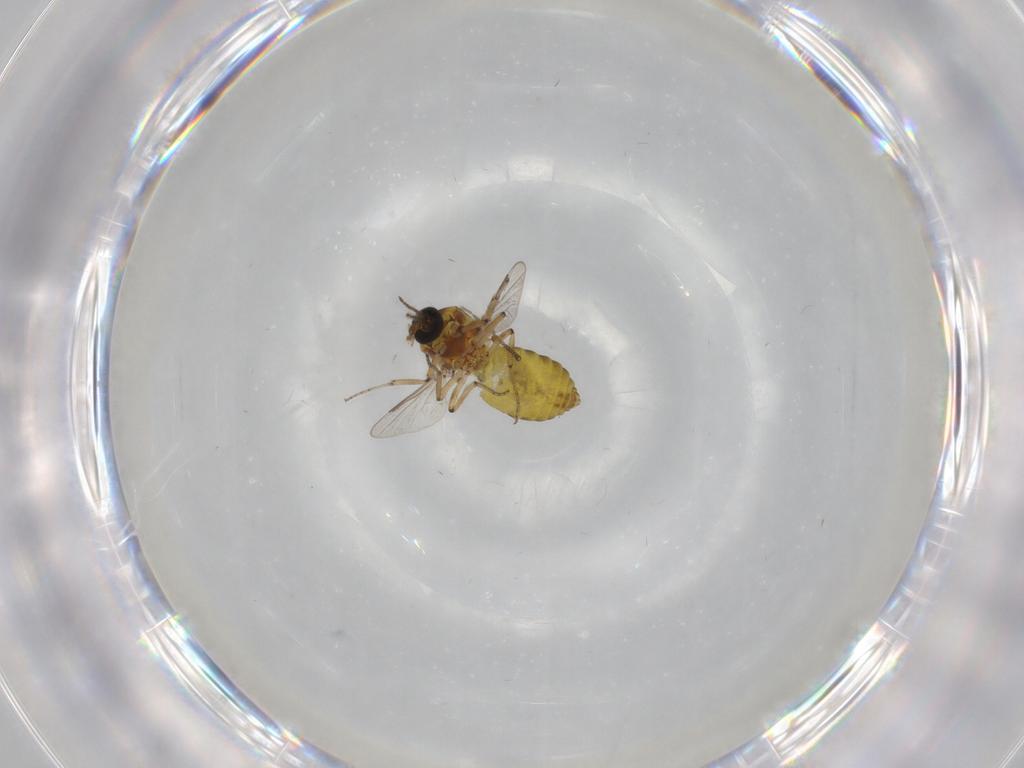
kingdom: Animalia
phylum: Arthropoda
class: Insecta
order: Diptera
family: Ceratopogonidae
